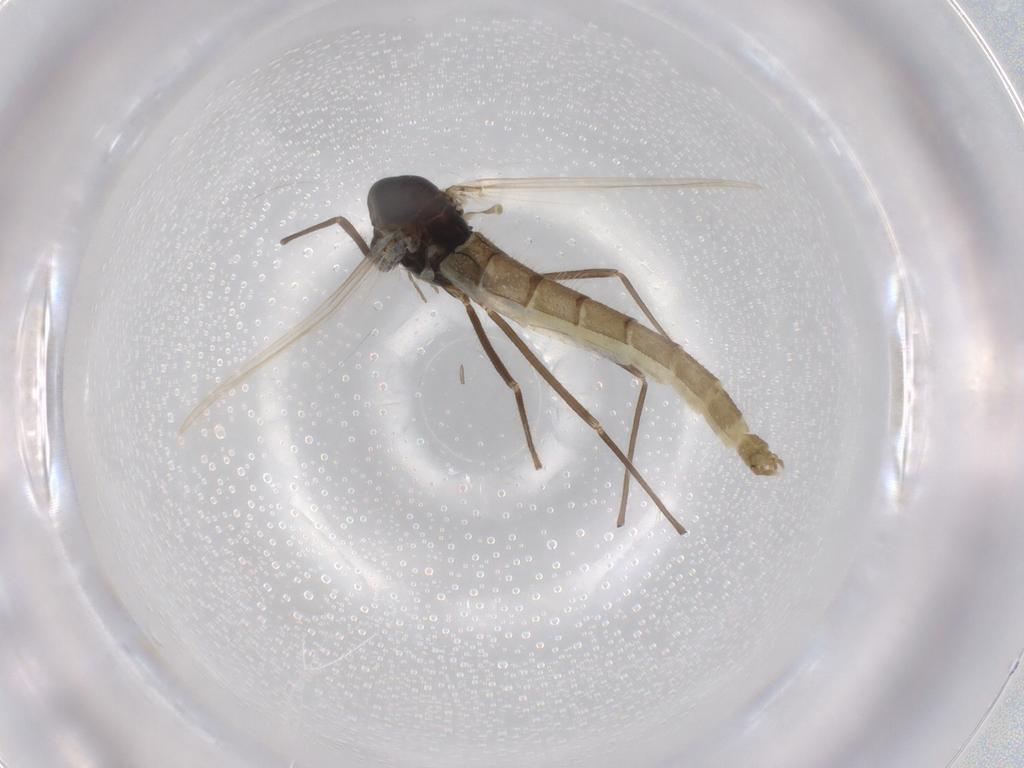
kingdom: Animalia
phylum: Arthropoda
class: Insecta
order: Diptera
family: Chironomidae
